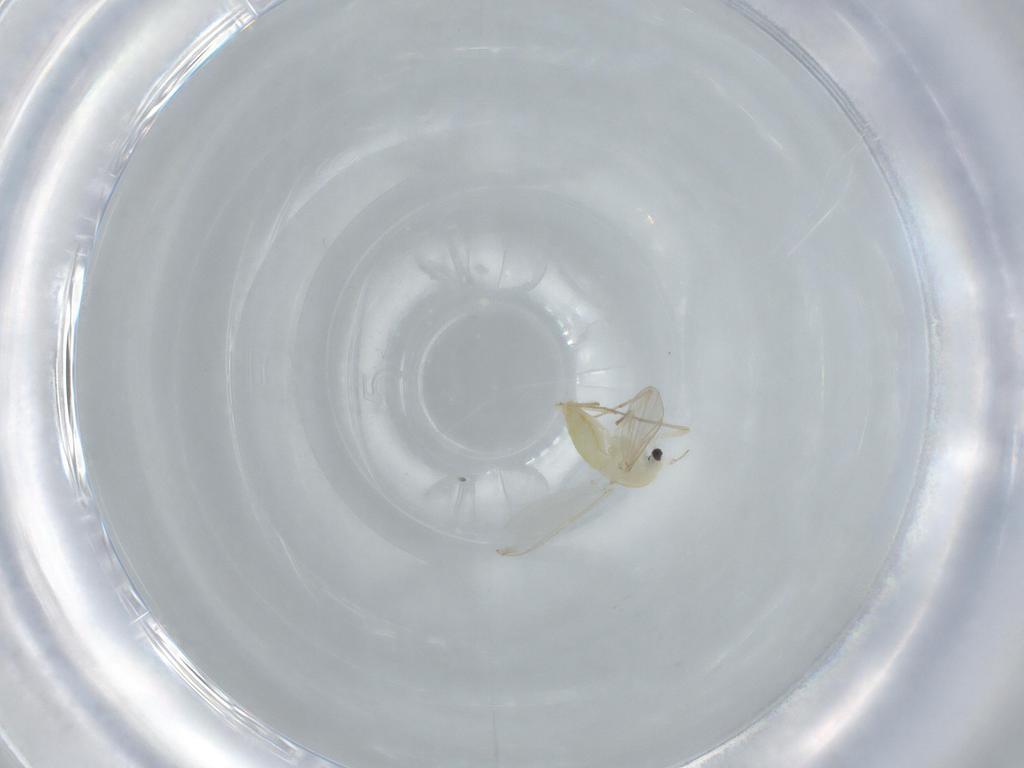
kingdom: Animalia
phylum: Arthropoda
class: Insecta
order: Diptera
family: Chironomidae
